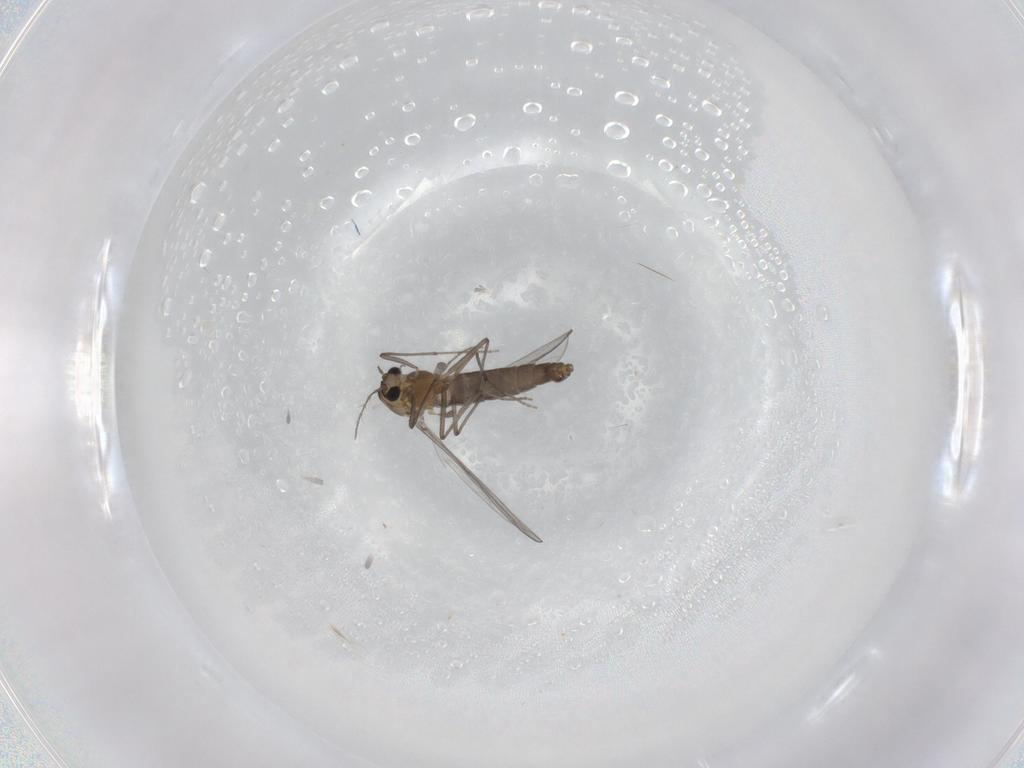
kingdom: Animalia
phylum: Arthropoda
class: Insecta
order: Diptera
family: Chironomidae
